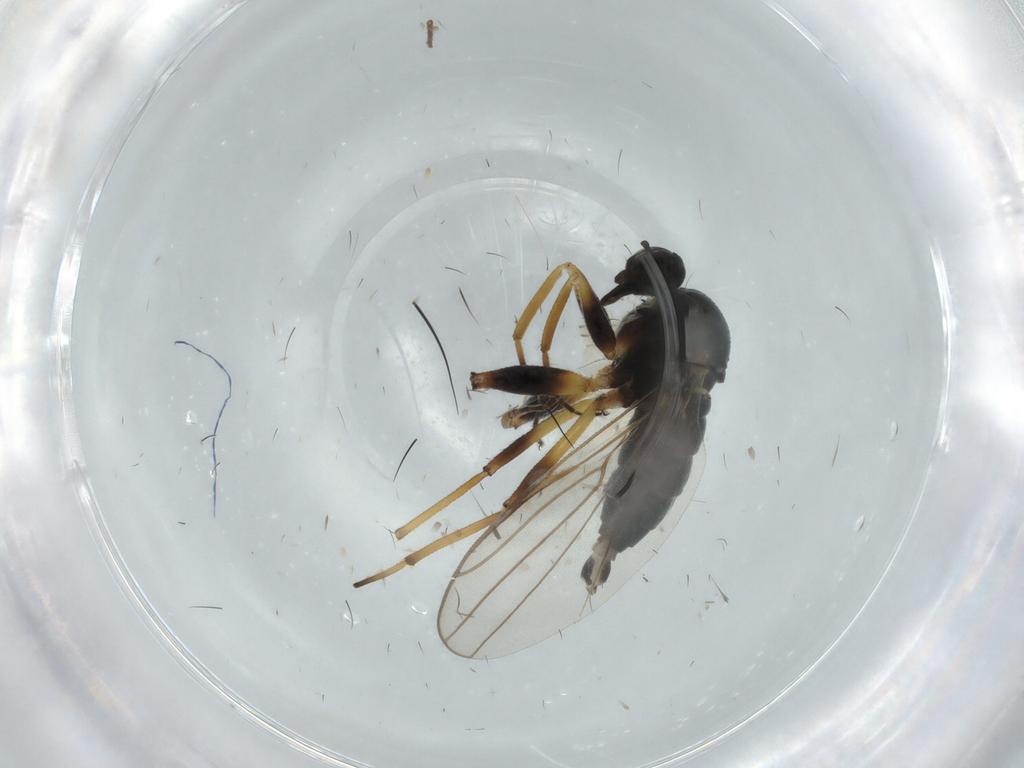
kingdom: Animalia
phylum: Arthropoda
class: Insecta
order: Diptera
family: Hybotidae
